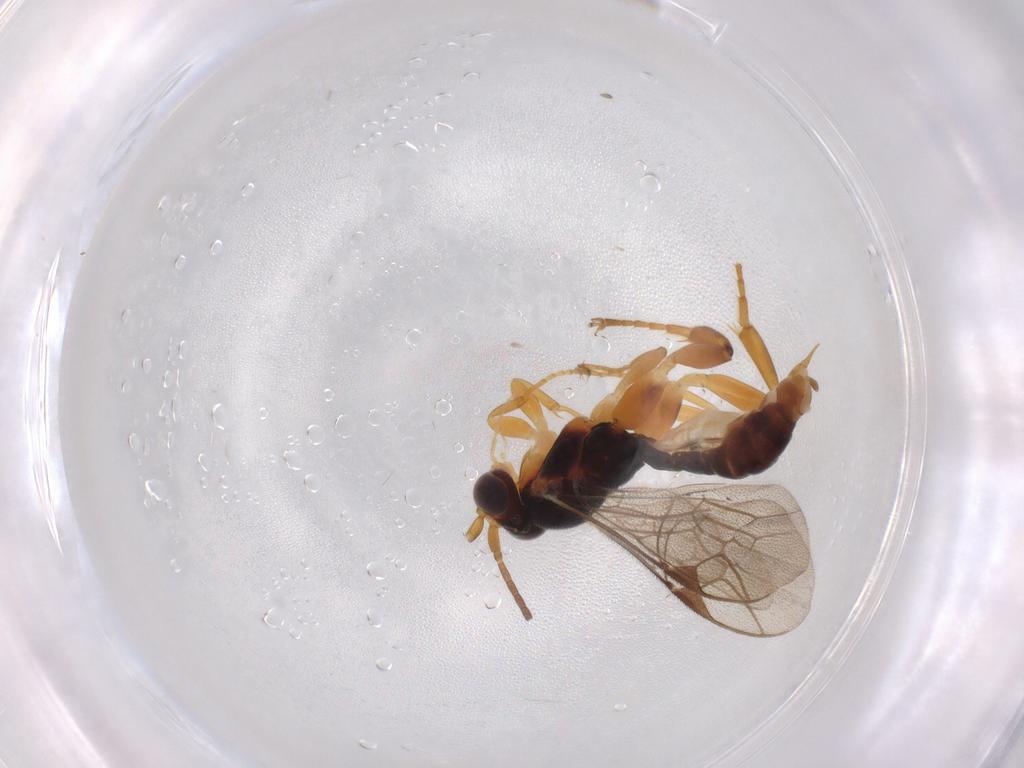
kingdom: Animalia
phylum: Arthropoda
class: Insecta
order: Hymenoptera
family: Ichneumonidae
